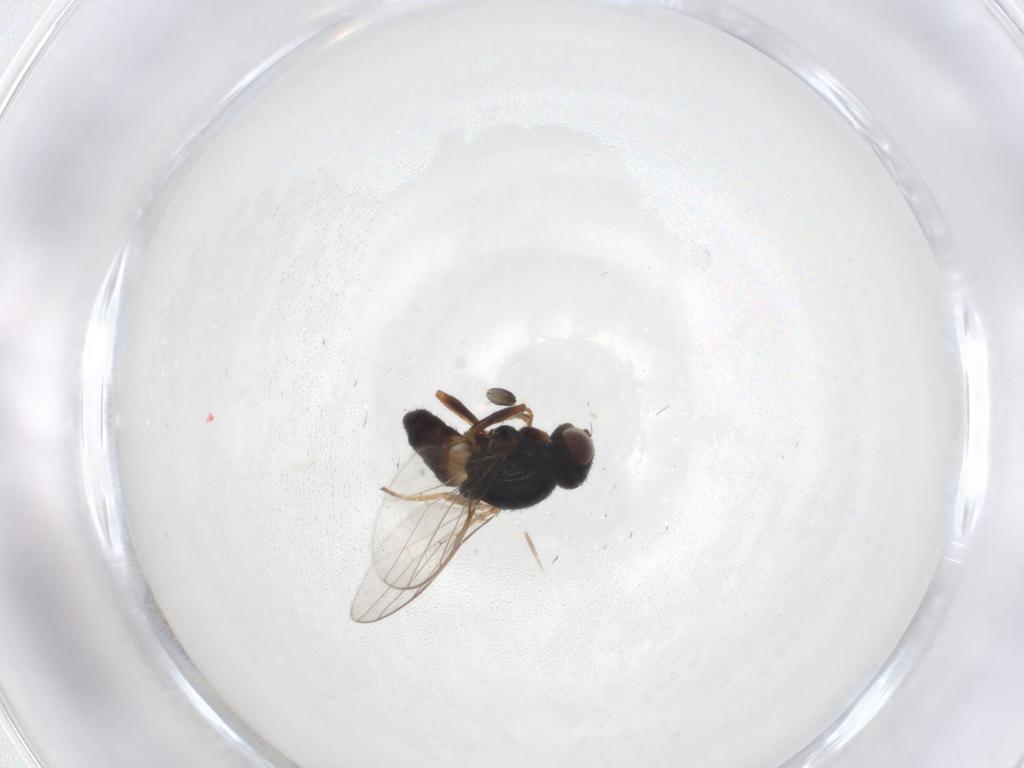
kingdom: Animalia
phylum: Arthropoda
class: Insecta
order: Diptera
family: Chloropidae
